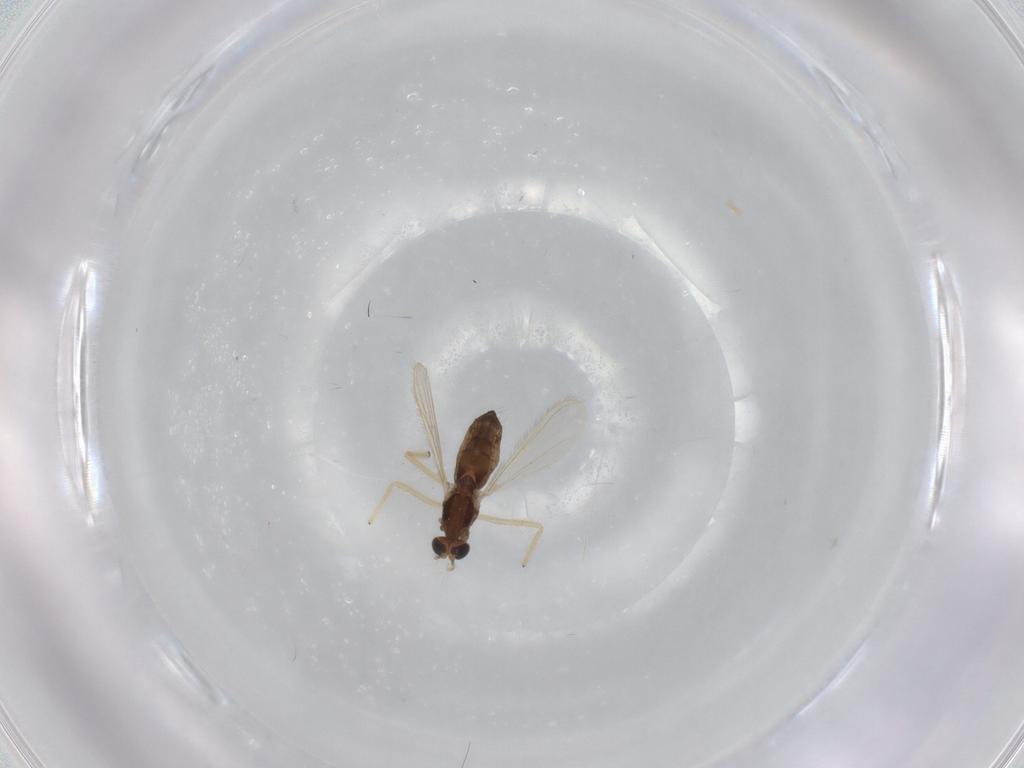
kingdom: Animalia
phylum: Arthropoda
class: Insecta
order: Diptera
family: Chironomidae
